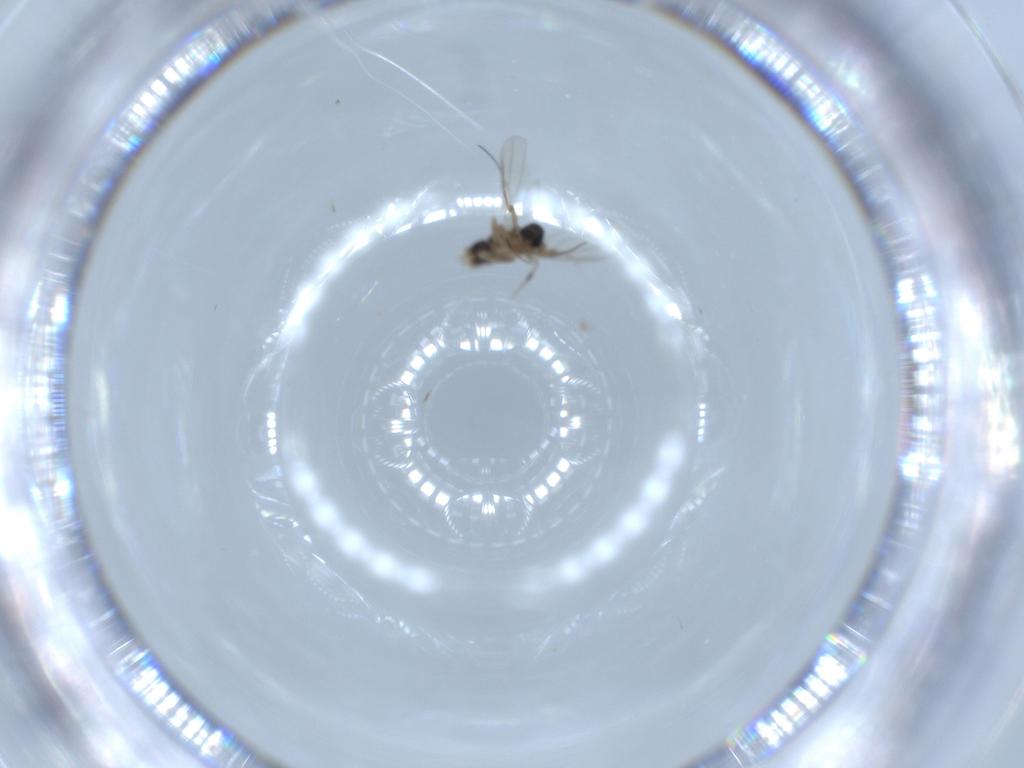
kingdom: Animalia
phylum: Arthropoda
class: Insecta
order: Diptera
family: Phoridae
